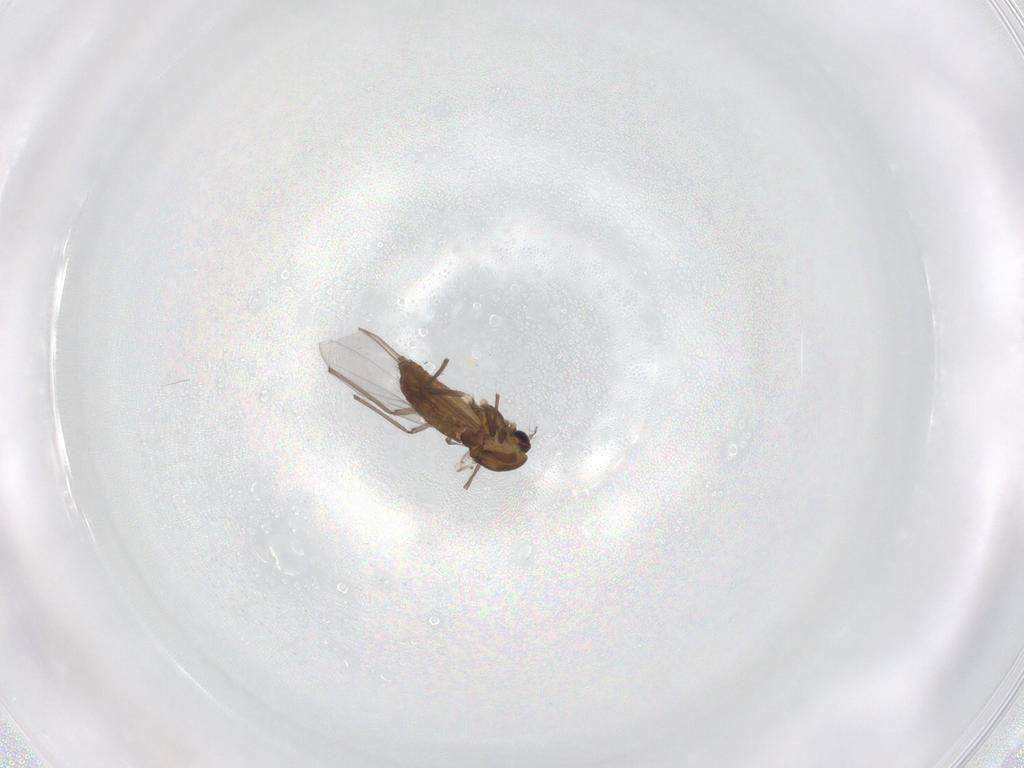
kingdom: Animalia
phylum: Arthropoda
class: Insecta
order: Diptera
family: Chironomidae
